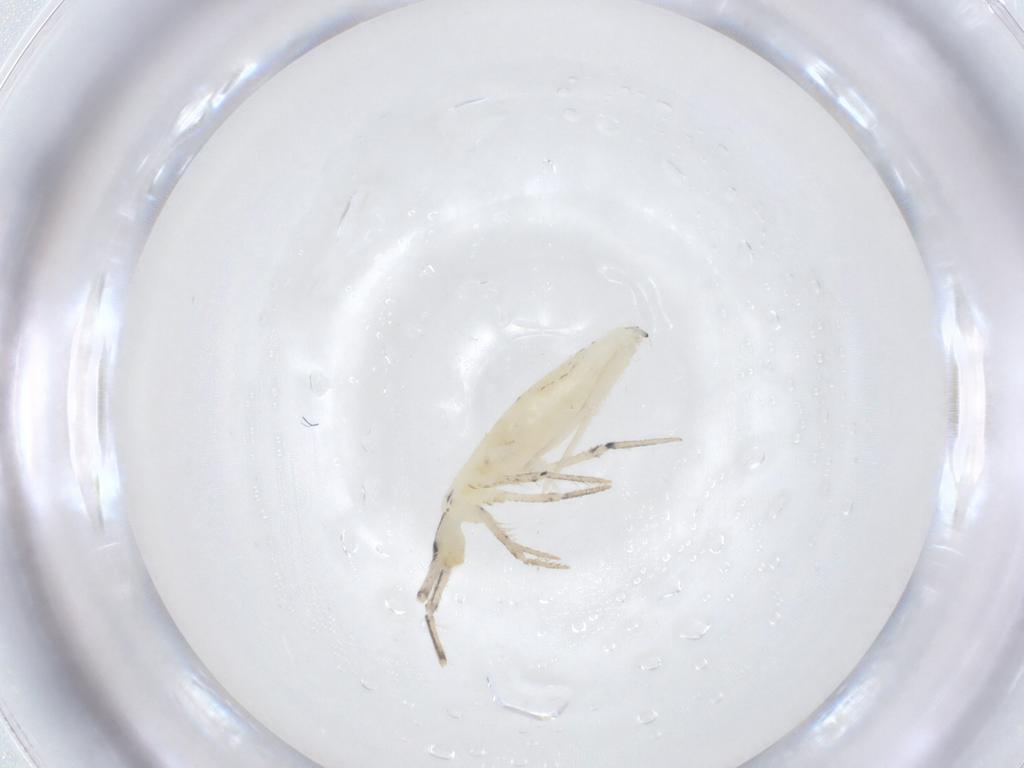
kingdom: Animalia
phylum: Arthropoda
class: Collembola
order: Entomobryomorpha
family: Entomobryidae
